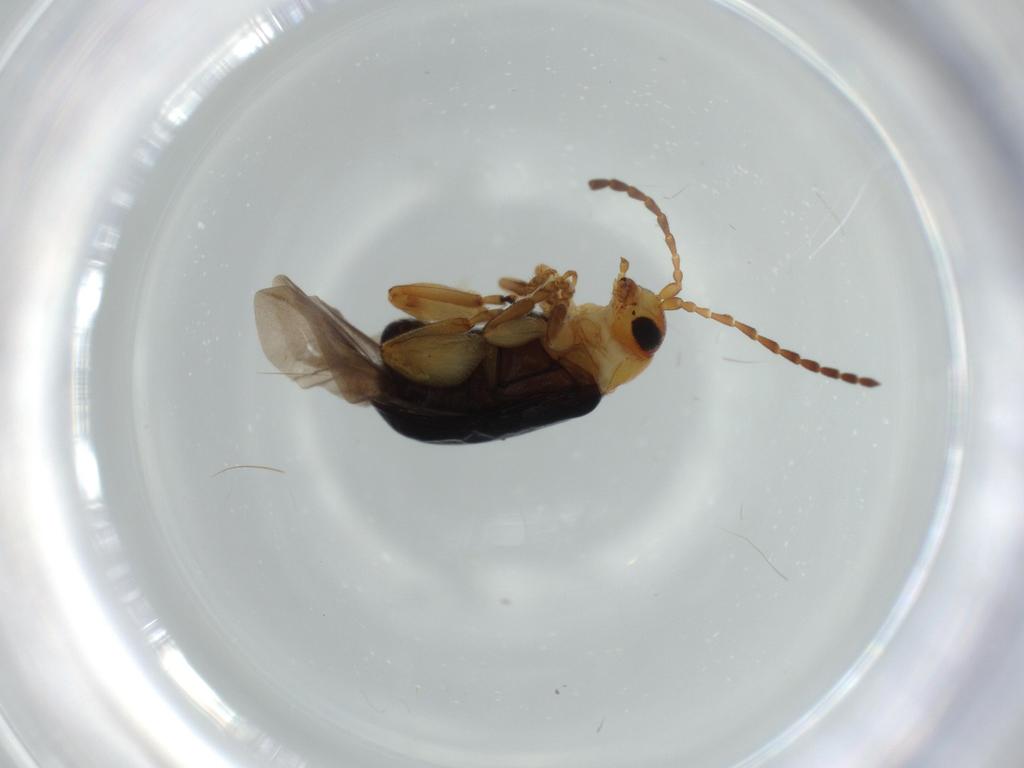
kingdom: Animalia
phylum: Arthropoda
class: Insecta
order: Coleoptera
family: Chrysomelidae
